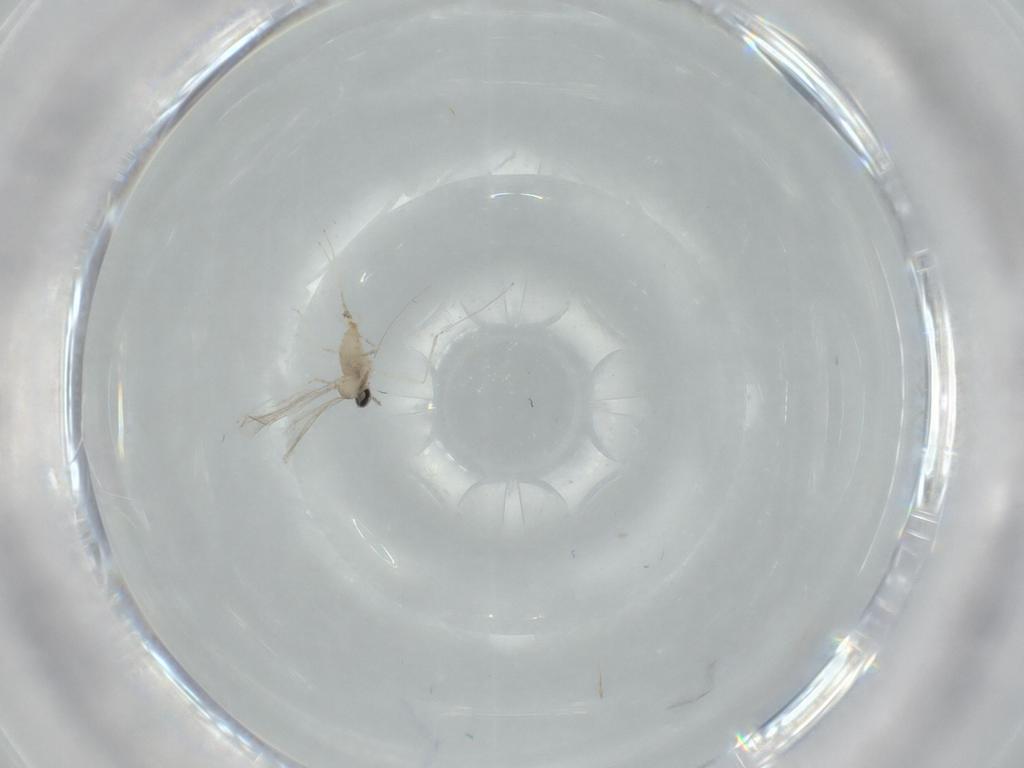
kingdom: Animalia
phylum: Arthropoda
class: Insecta
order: Diptera
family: Cecidomyiidae
